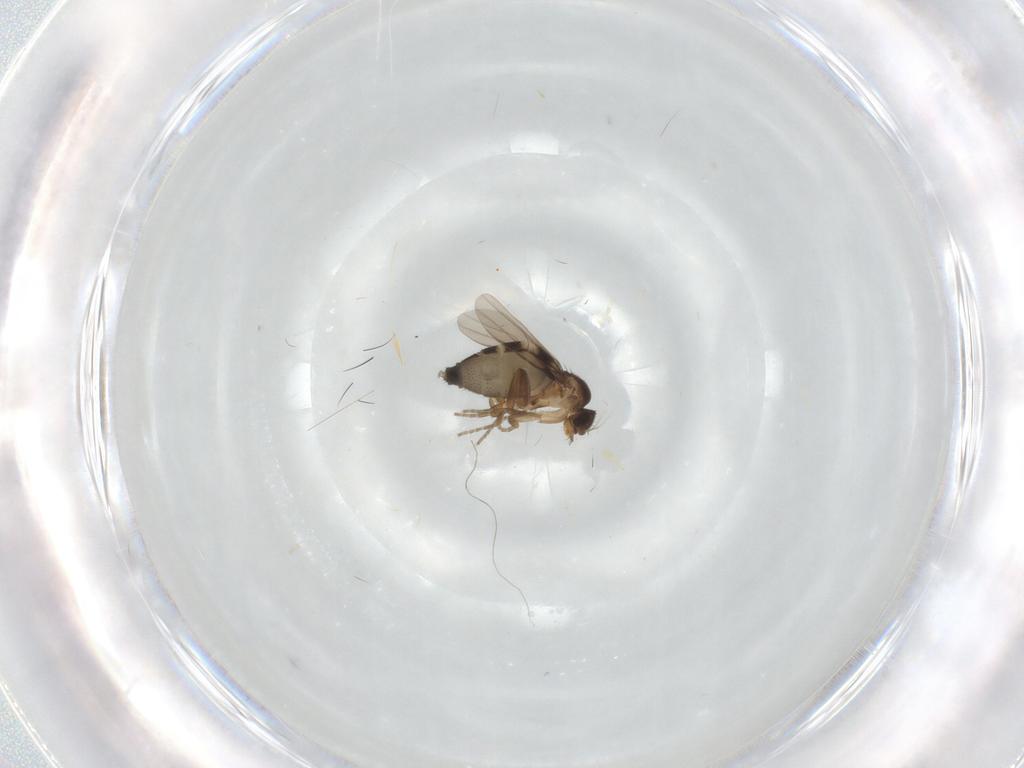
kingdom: Animalia
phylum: Arthropoda
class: Insecta
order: Diptera
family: Phoridae
